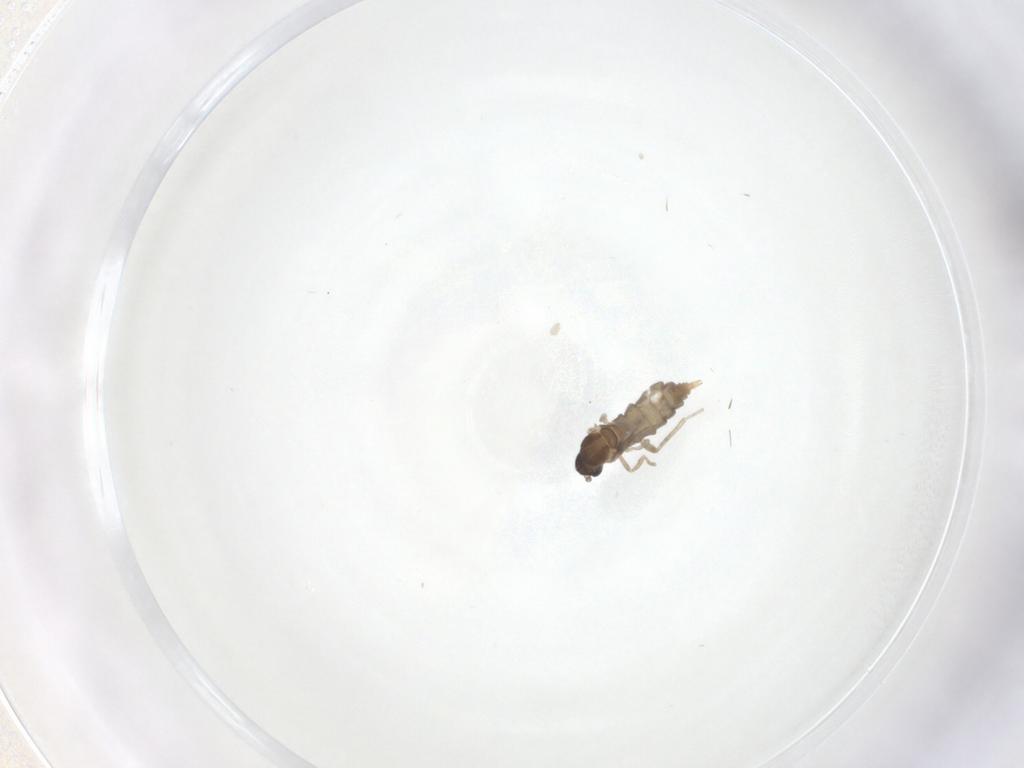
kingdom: Animalia
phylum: Arthropoda
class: Insecta
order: Diptera
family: Cecidomyiidae
